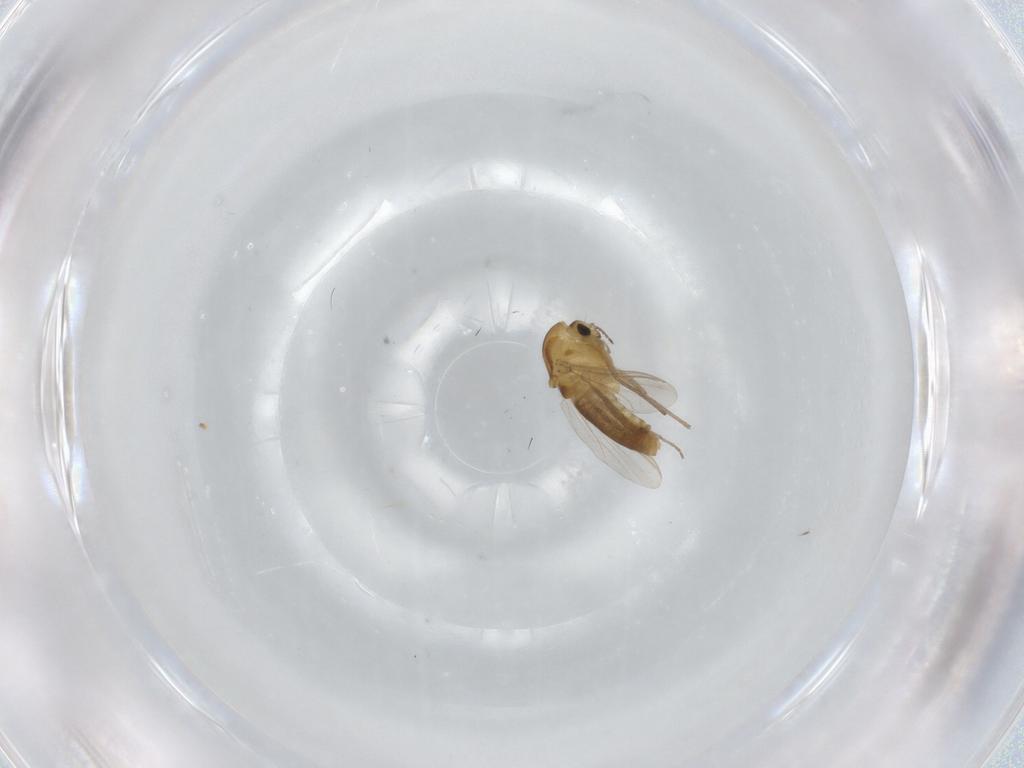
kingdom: Animalia
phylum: Arthropoda
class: Insecta
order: Diptera
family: Chironomidae
